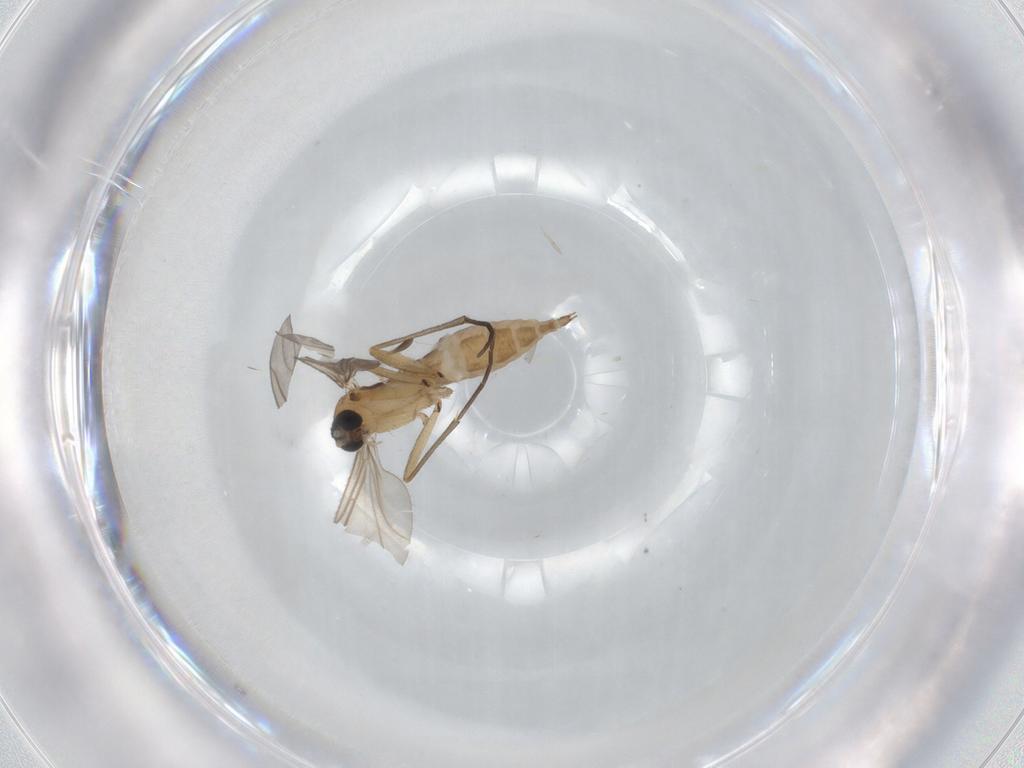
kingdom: Animalia
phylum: Arthropoda
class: Insecta
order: Diptera
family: Sciaridae
